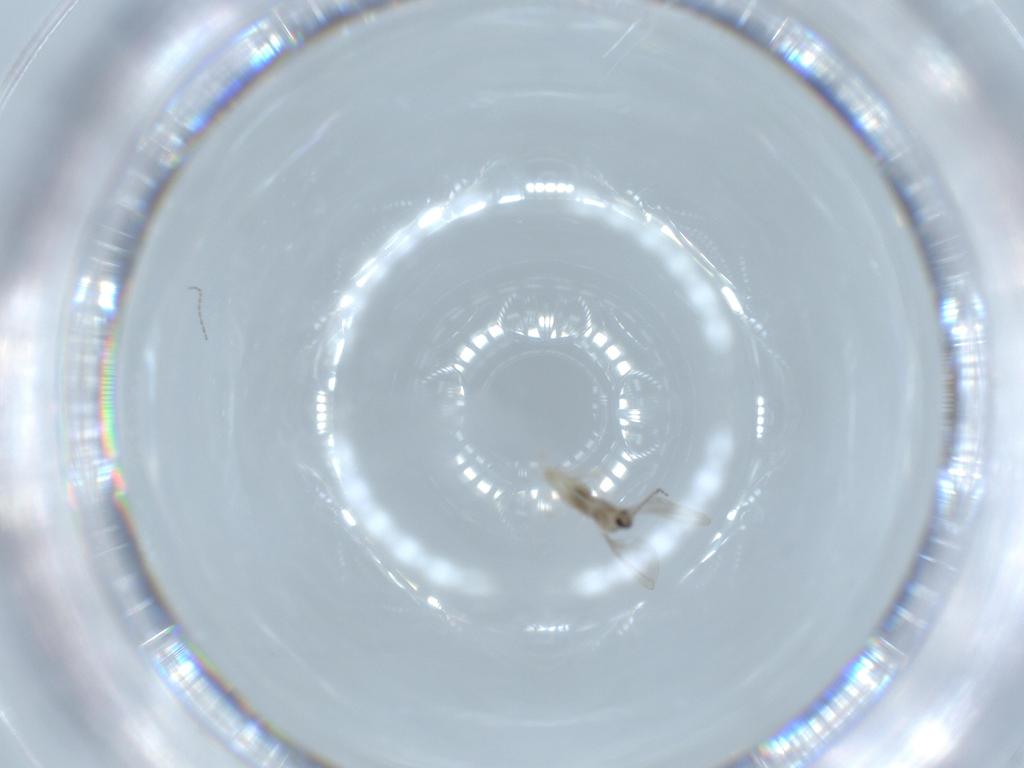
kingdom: Animalia
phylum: Arthropoda
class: Insecta
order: Diptera
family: Cecidomyiidae
